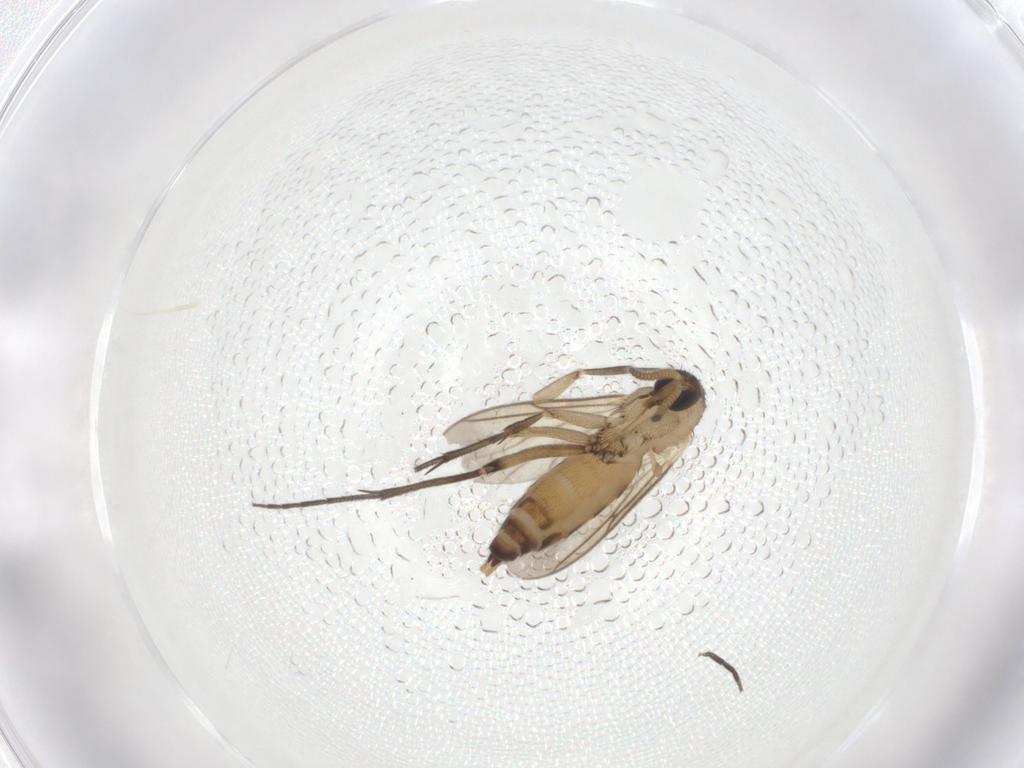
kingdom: Animalia
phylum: Arthropoda
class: Insecta
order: Diptera
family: Mycetophilidae
